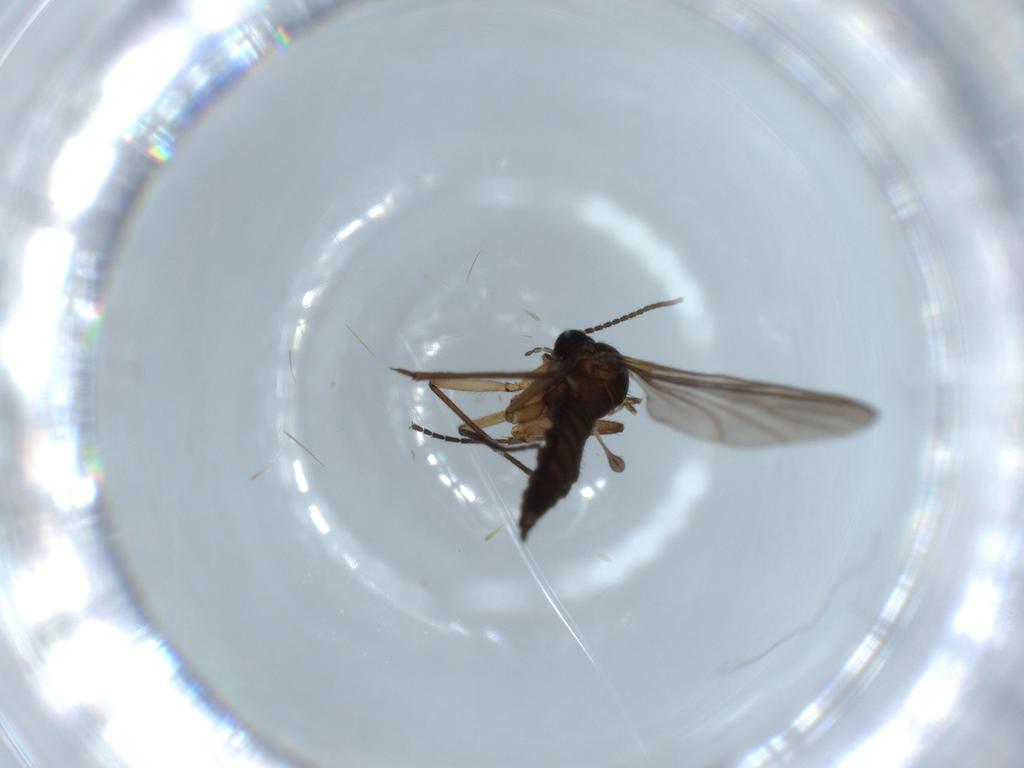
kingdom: Animalia
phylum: Arthropoda
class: Insecta
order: Diptera
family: Sciaridae
